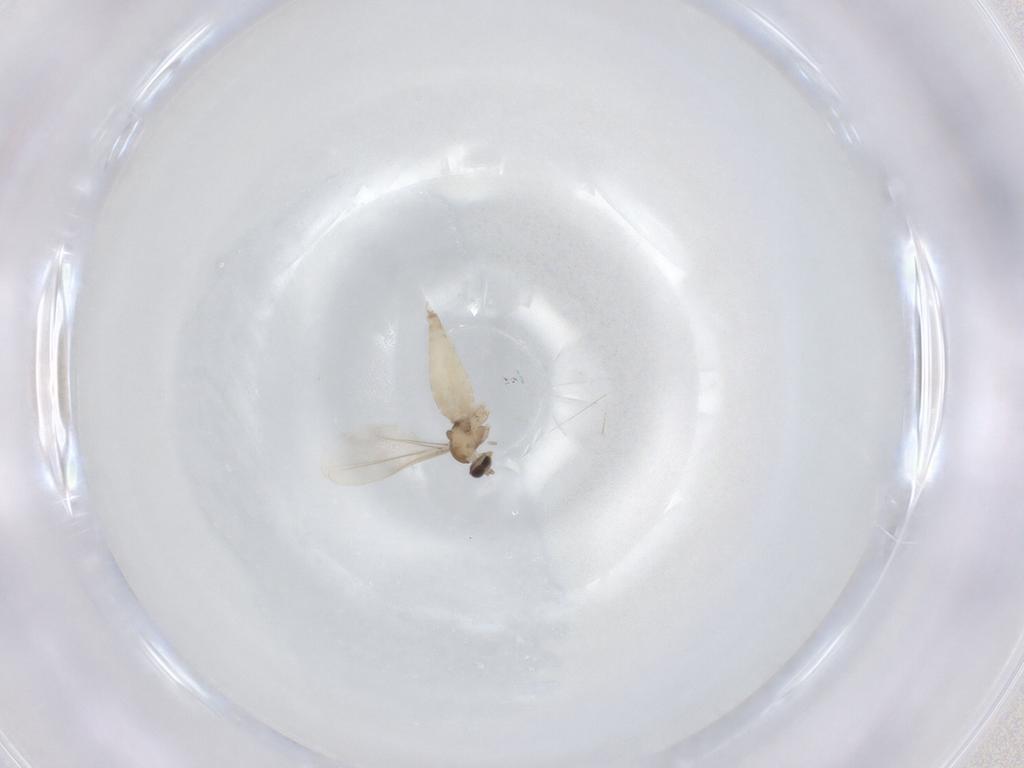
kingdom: Animalia
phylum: Arthropoda
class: Insecta
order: Diptera
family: Cecidomyiidae
